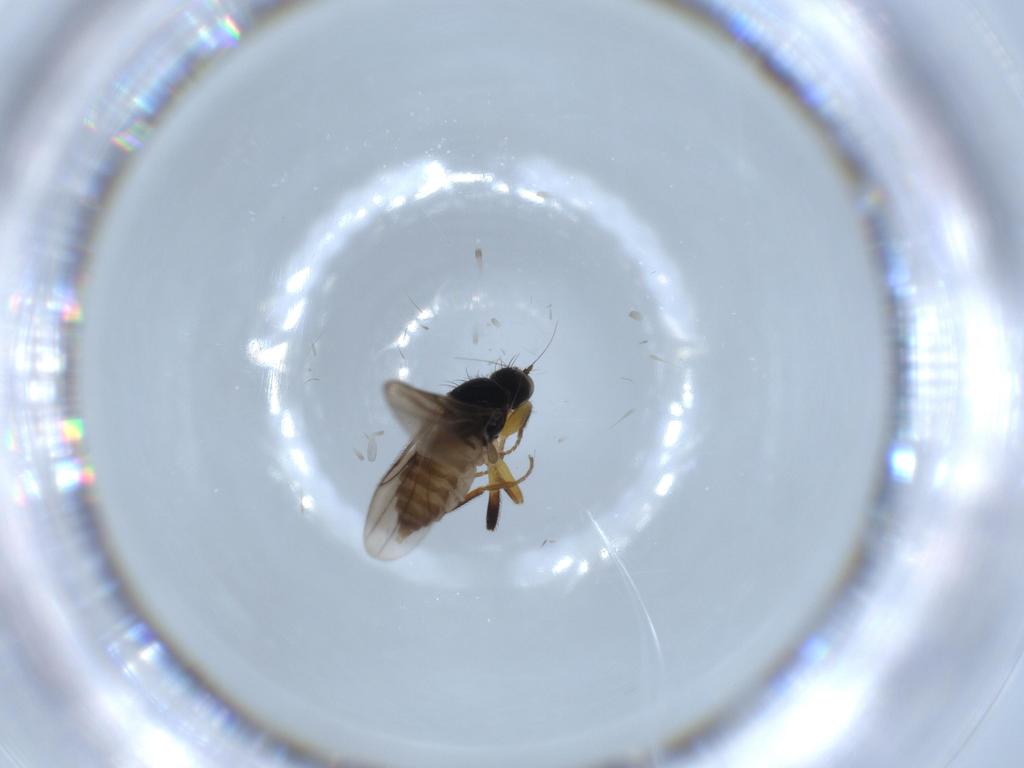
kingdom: Animalia
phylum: Arthropoda
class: Insecta
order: Diptera
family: Hybotidae
